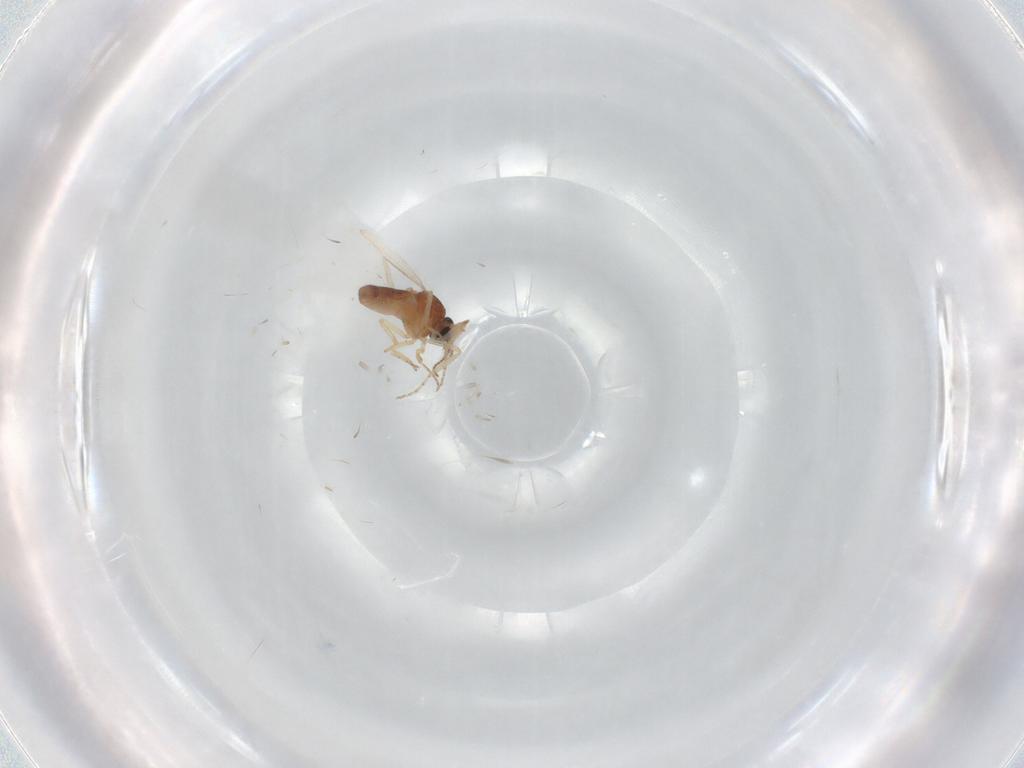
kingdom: Animalia
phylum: Arthropoda
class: Insecta
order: Diptera
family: Ceratopogonidae
